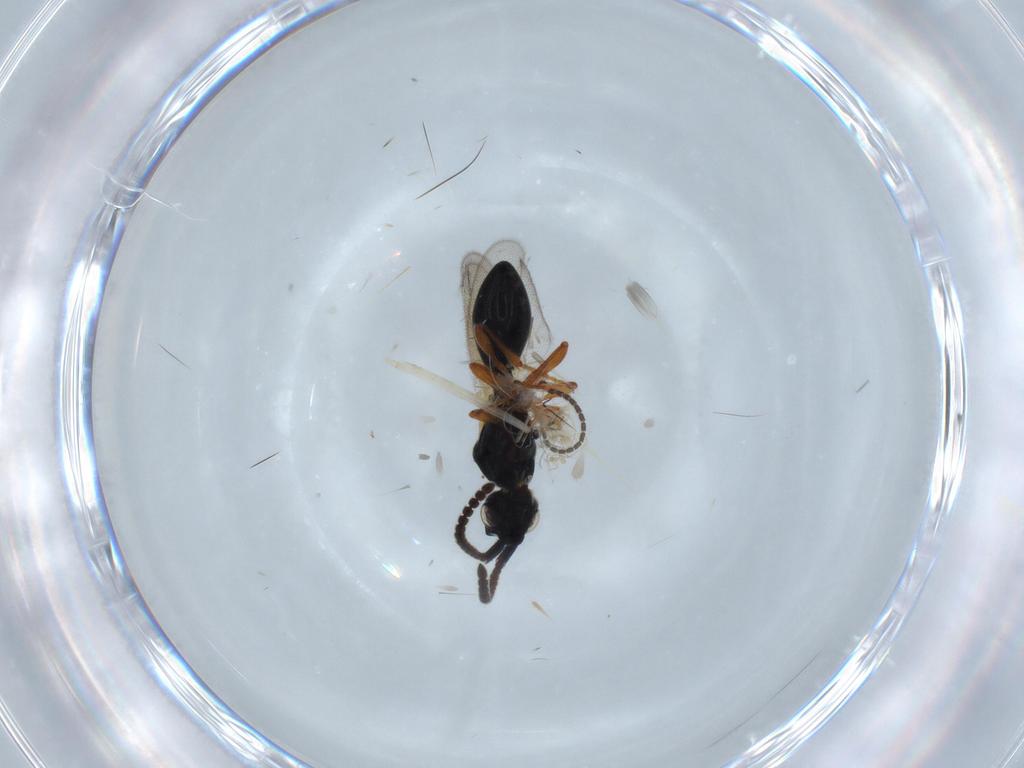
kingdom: Animalia
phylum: Arthropoda
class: Insecta
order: Hymenoptera
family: Diapriidae
